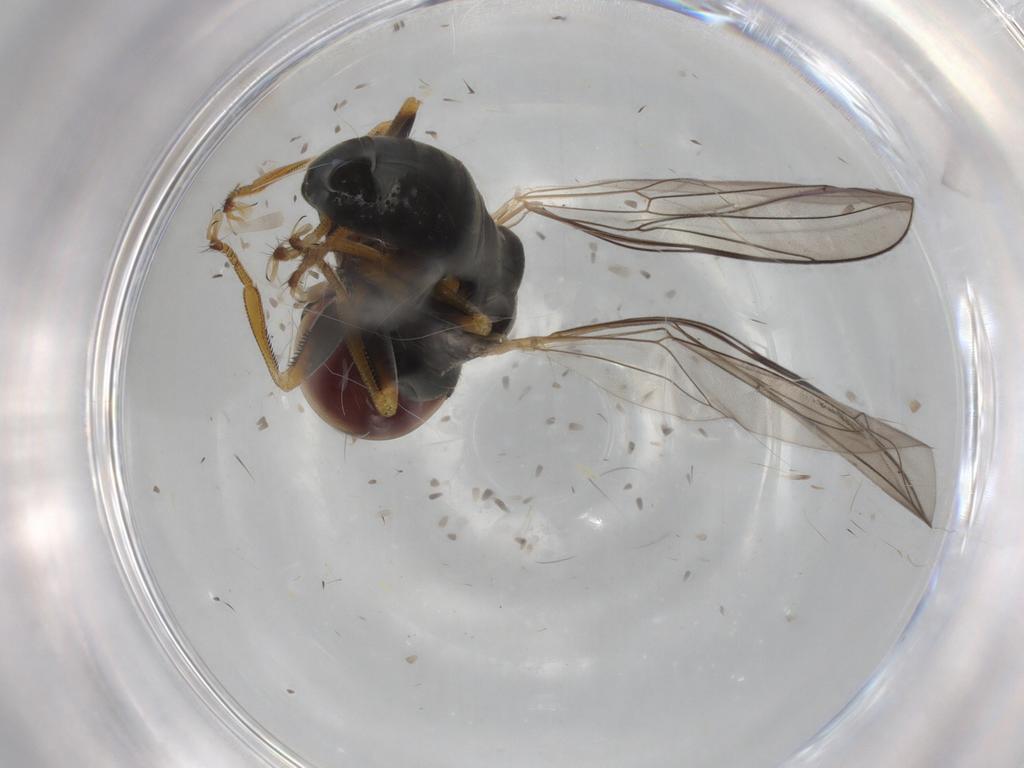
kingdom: Animalia
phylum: Arthropoda
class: Insecta
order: Diptera
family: Pipunculidae
